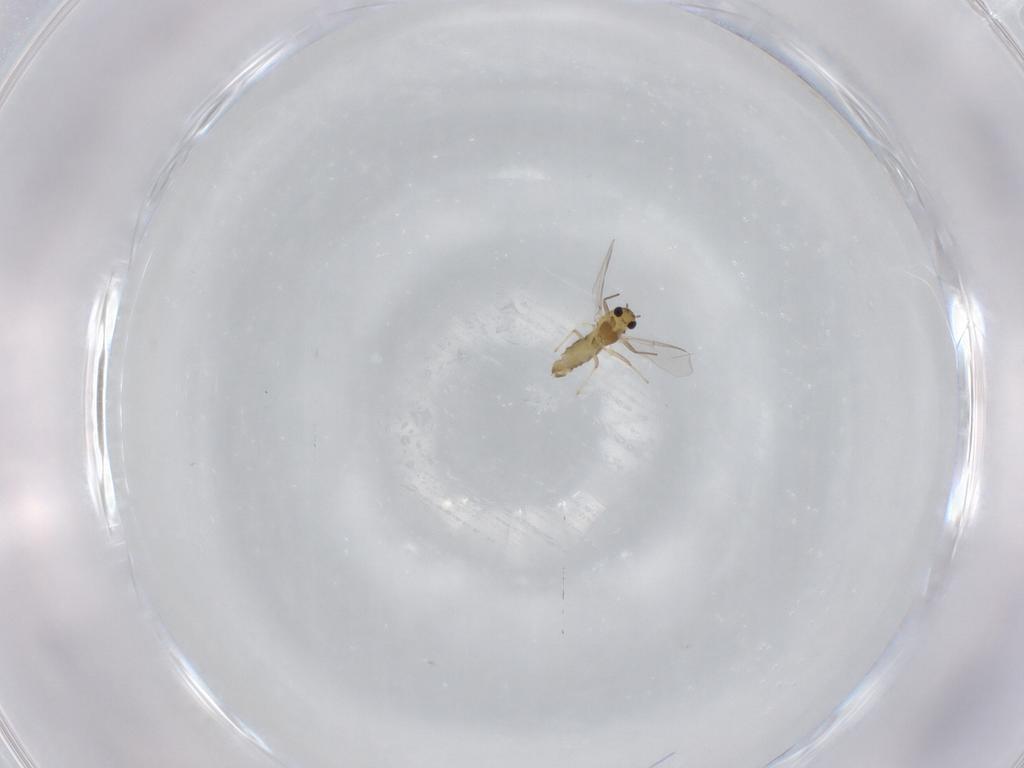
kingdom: Animalia
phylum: Arthropoda
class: Insecta
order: Diptera
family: Chironomidae
